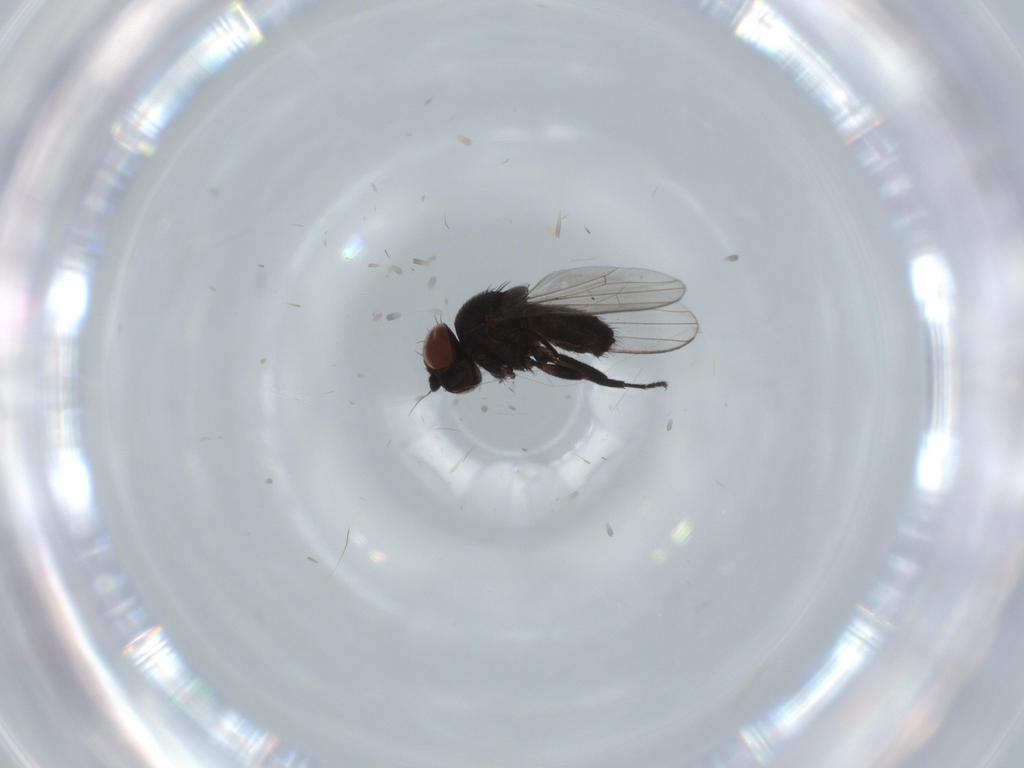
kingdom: Animalia
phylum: Arthropoda
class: Insecta
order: Diptera
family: Milichiidae
